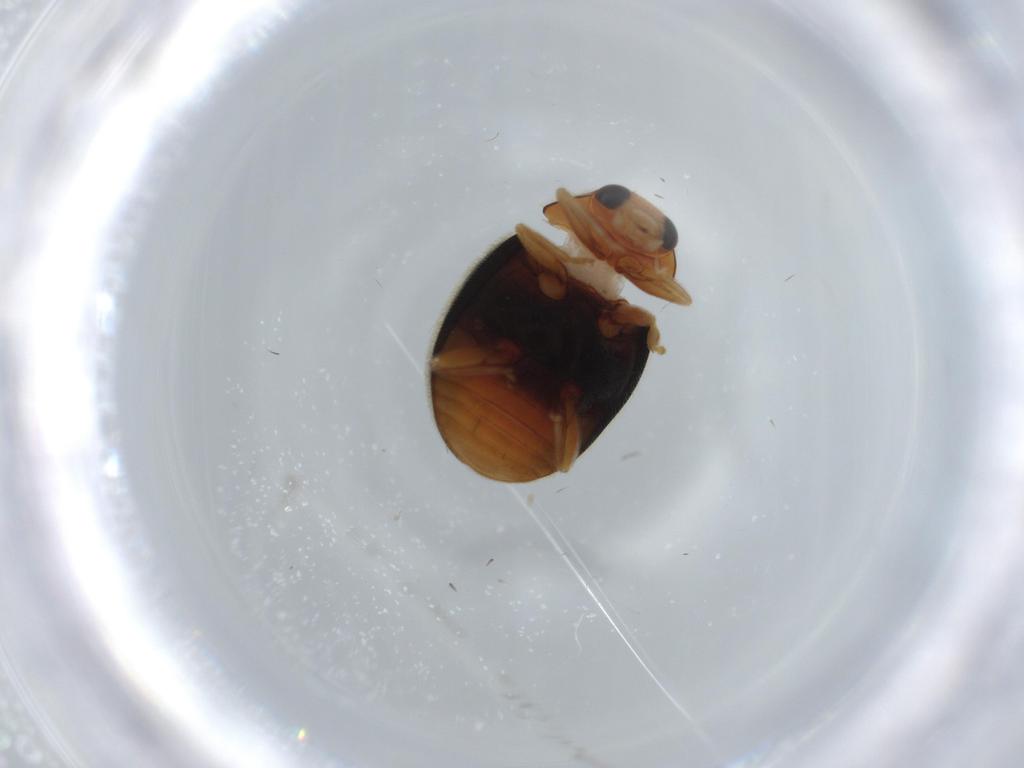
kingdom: Animalia
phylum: Arthropoda
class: Insecta
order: Coleoptera
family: Coccinellidae
